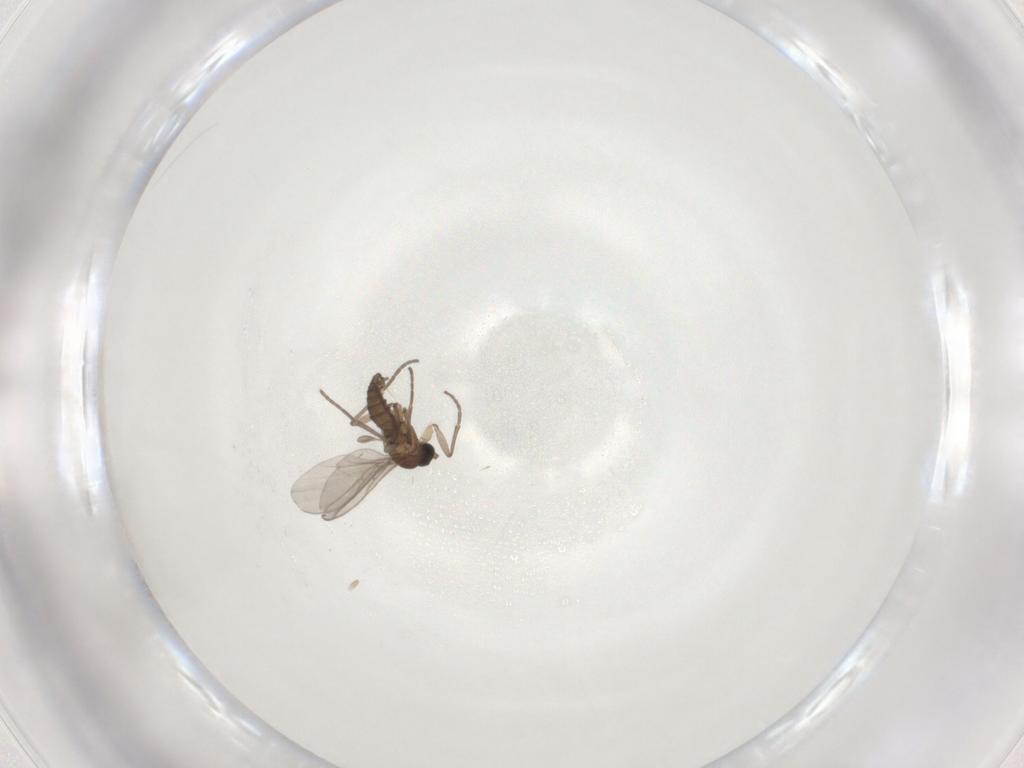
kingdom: Animalia
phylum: Arthropoda
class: Insecta
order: Diptera
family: Sciaridae
